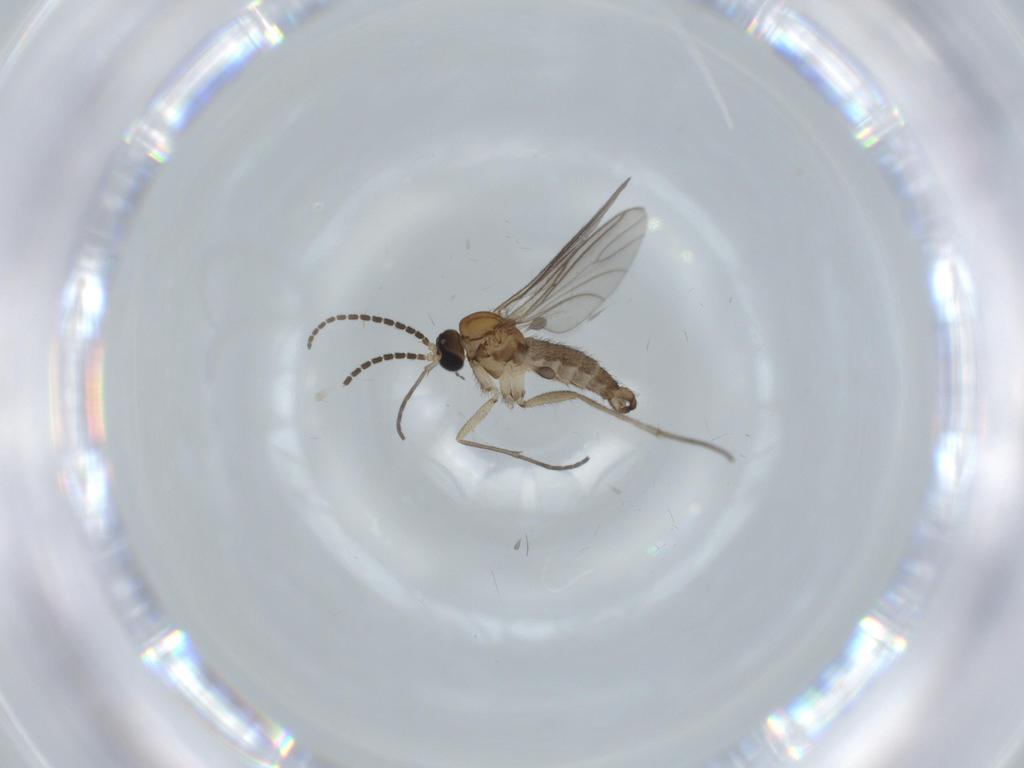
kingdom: Animalia
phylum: Arthropoda
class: Insecta
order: Diptera
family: Sciaridae
